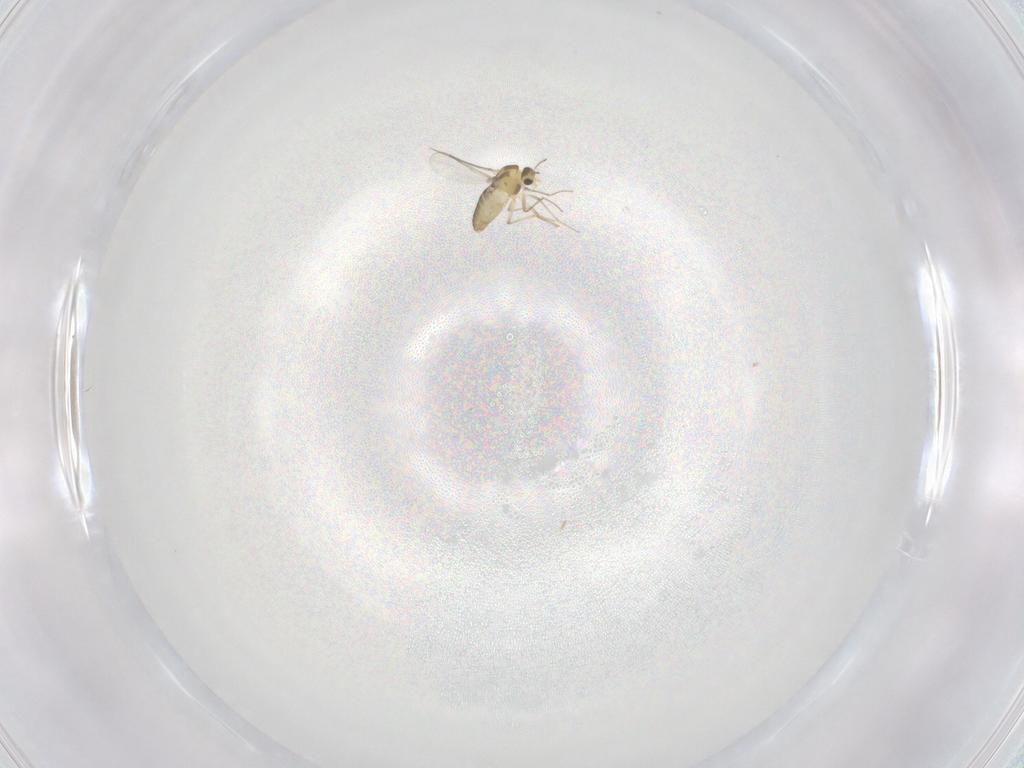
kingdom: Animalia
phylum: Arthropoda
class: Insecta
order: Diptera
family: Chironomidae
